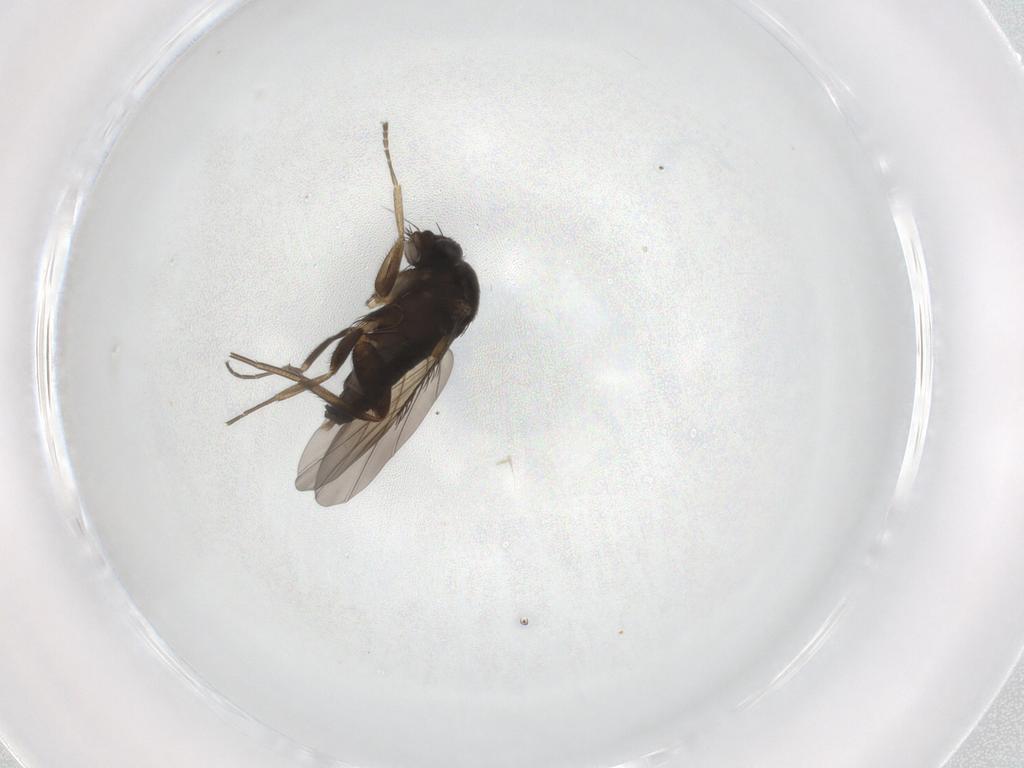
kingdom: Animalia
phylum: Arthropoda
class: Insecta
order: Diptera
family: Phoridae
